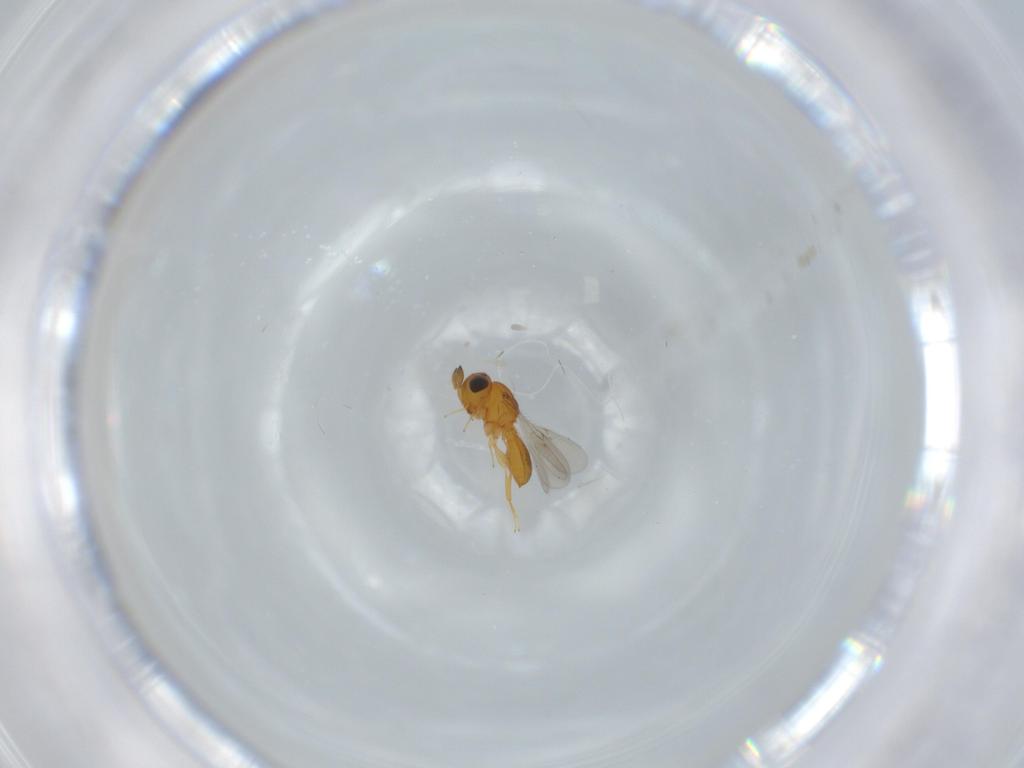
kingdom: Animalia
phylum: Arthropoda
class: Insecta
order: Hymenoptera
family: Scelionidae
